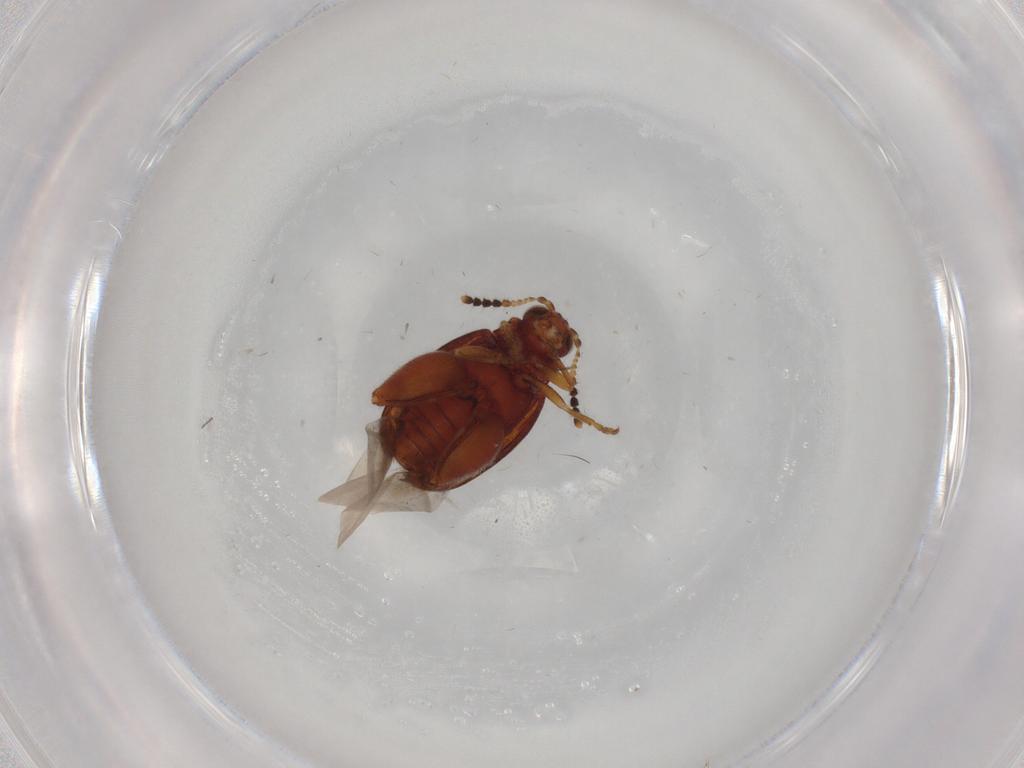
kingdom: Animalia
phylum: Arthropoda
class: Insecta
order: Coleoptera
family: Chrysomelidae
